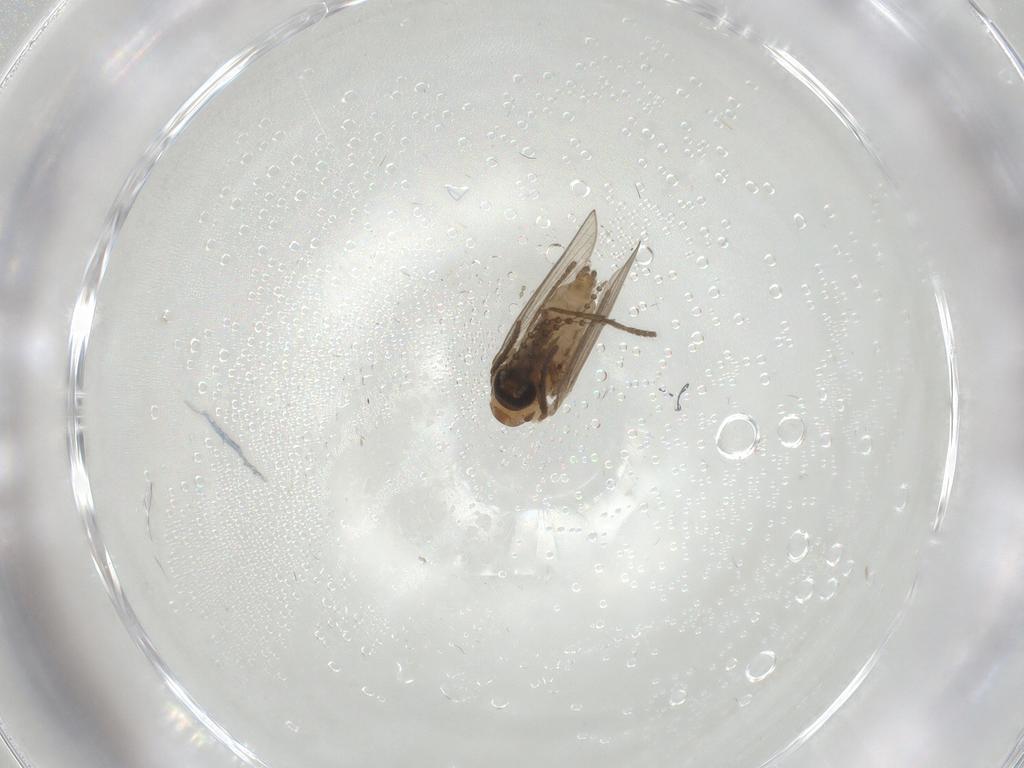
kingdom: Animalia
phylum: Arthropoda
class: Insecta
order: Diptera
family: Psychodidae
